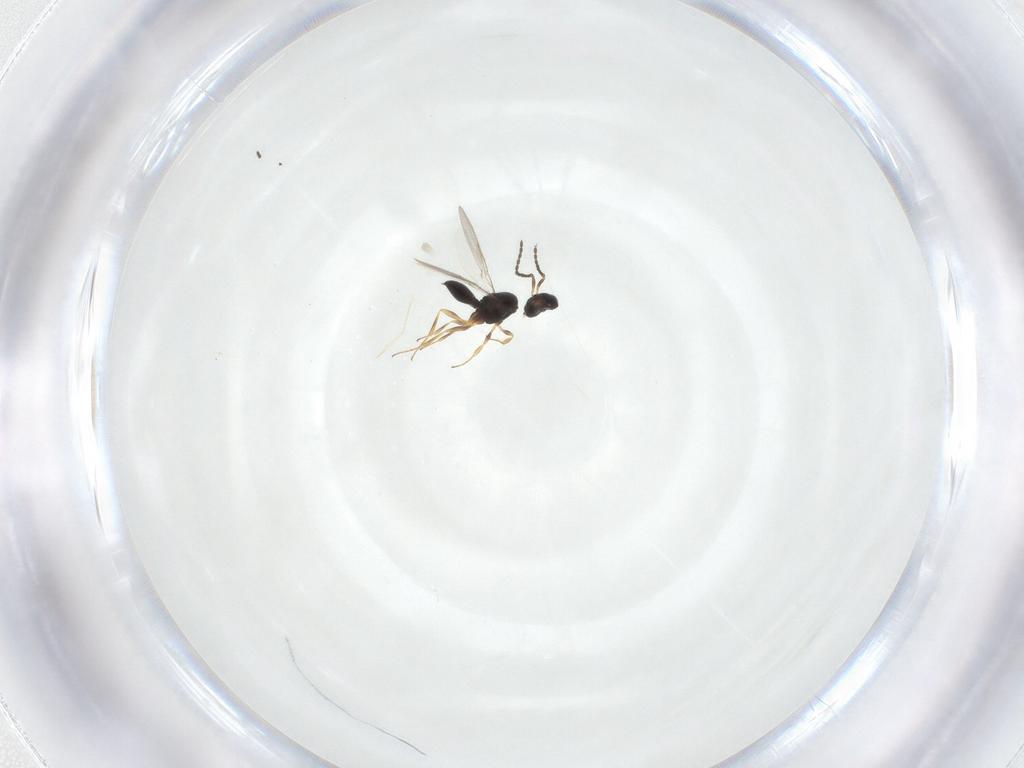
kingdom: Animalia
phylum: Arthropoda
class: Insecta
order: Hymenoptera
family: Scelionidae
